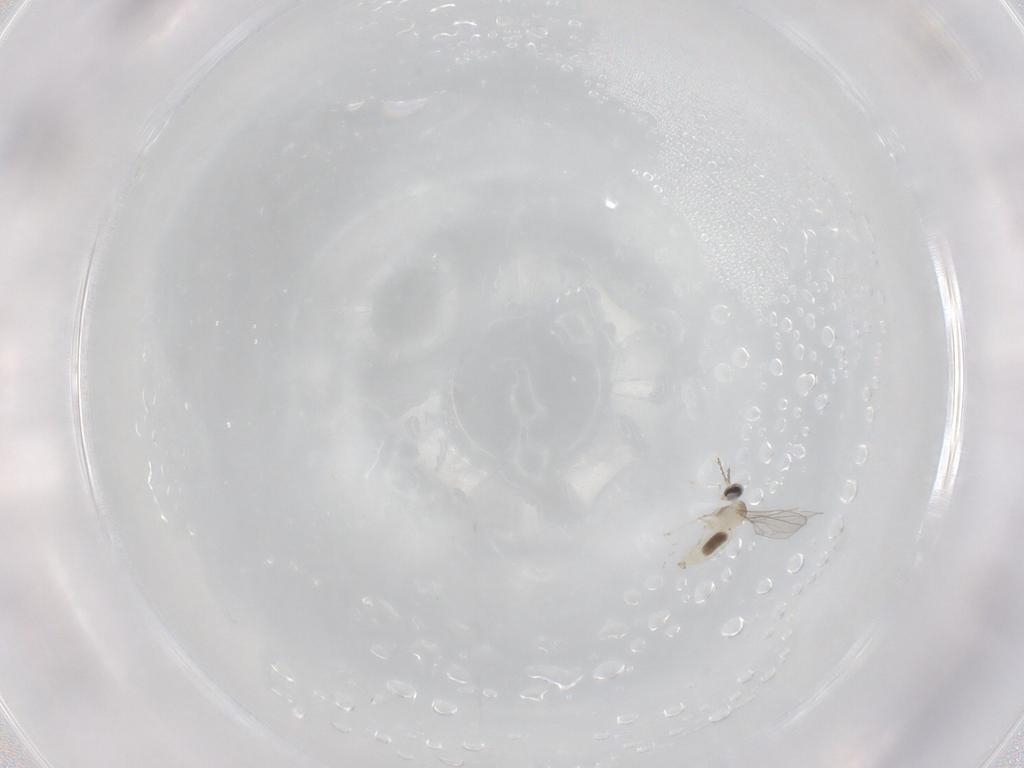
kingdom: Animalia
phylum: Arthropoda
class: Insecta
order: Diptera
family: Cecidomyiidae
